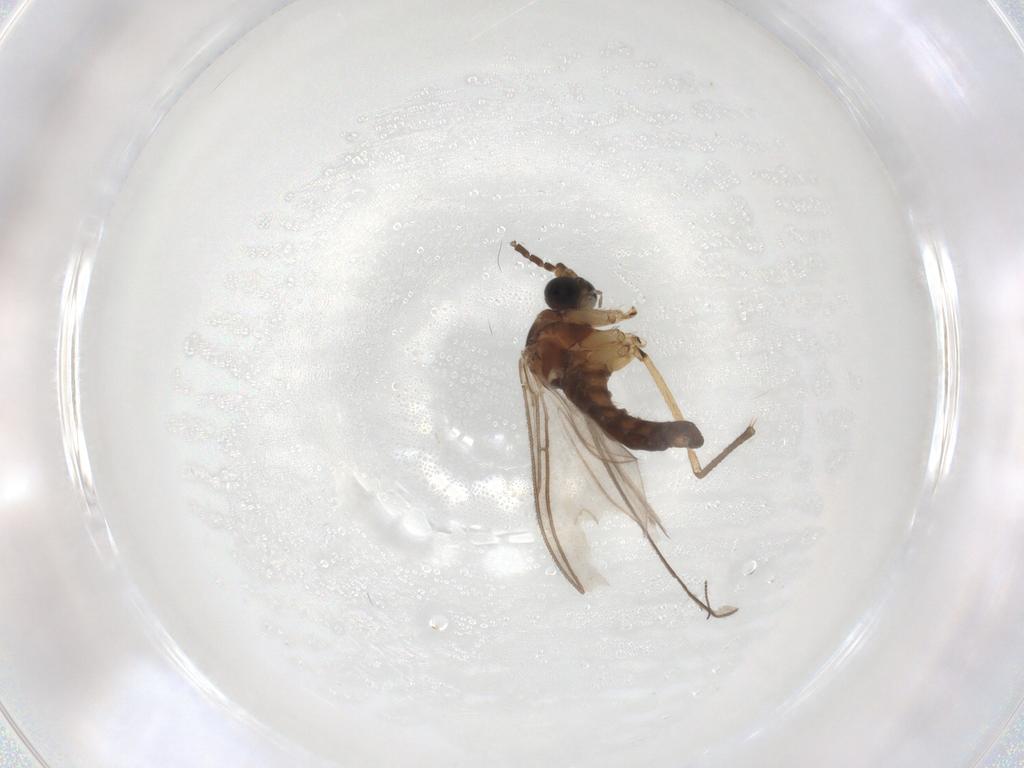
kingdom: Animalia
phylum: Arthropoda
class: Insecta
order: Diptera
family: Sciaridae
